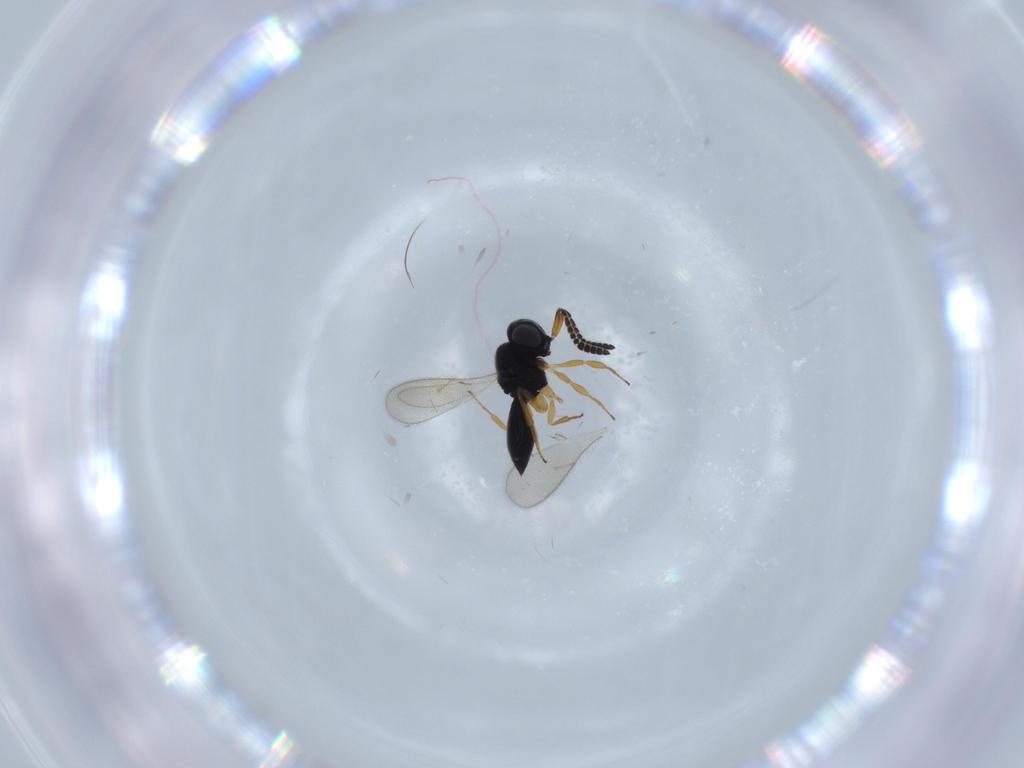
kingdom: Animalia
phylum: Arthropoda
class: Insecta
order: Hymenoptera
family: Scelionidae
